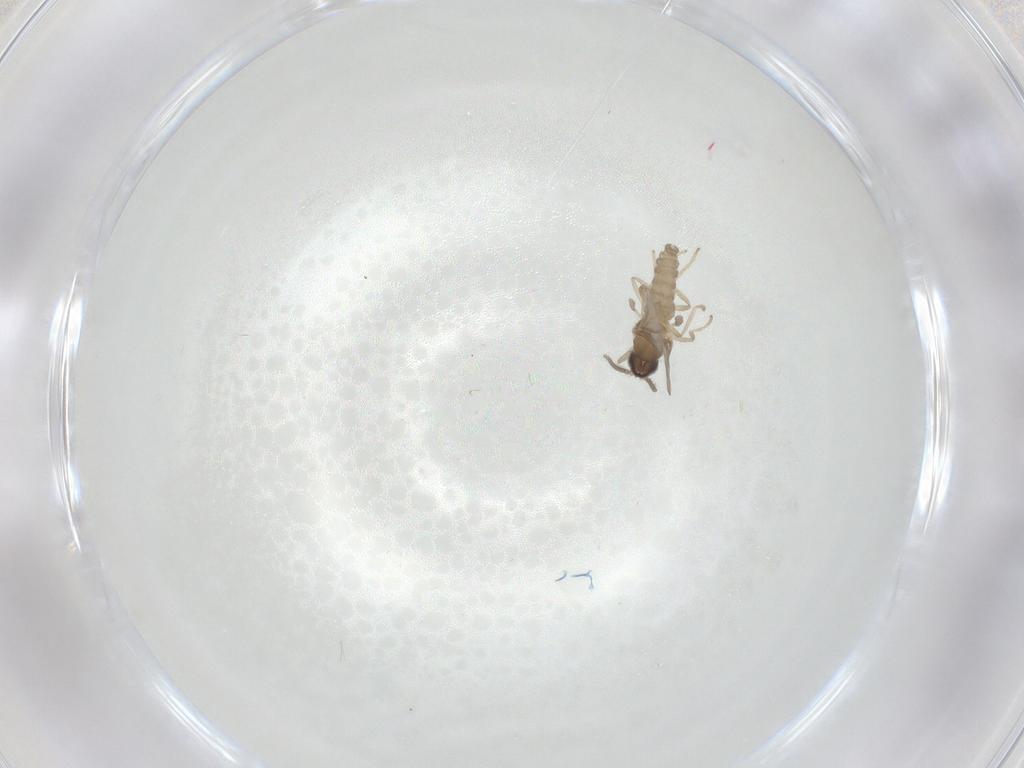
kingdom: Animalia
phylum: Arthropoda
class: Insecta
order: Diptera
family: Cecidomyiidae
